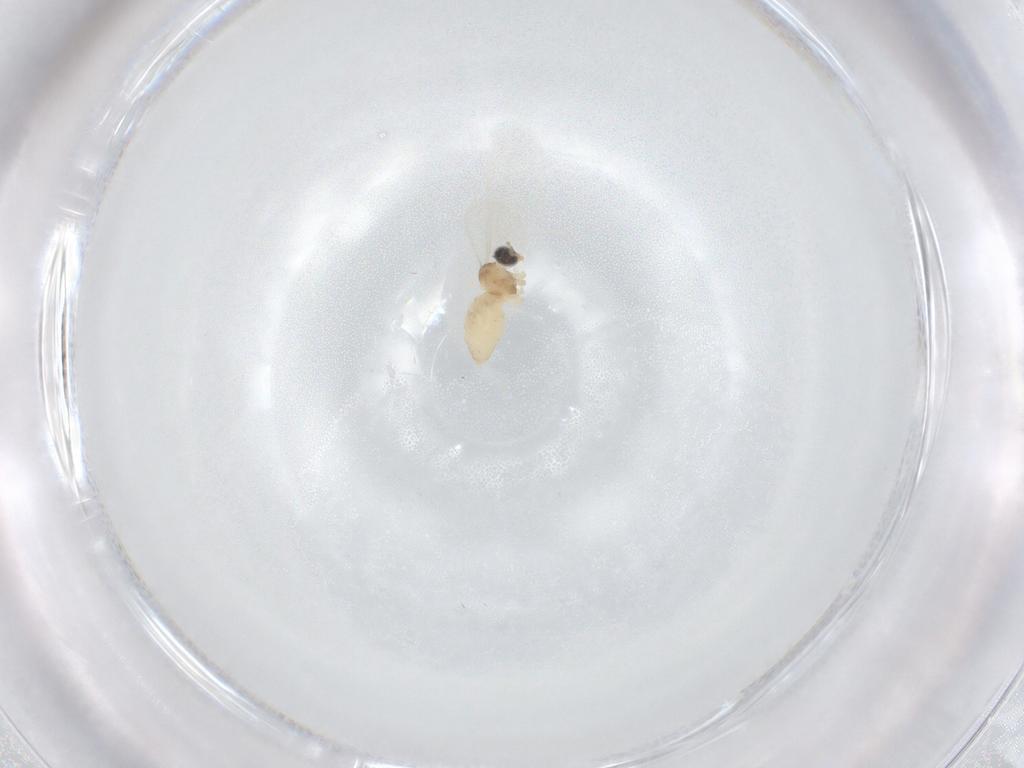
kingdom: Animalia
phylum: Arthropoda
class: Insecta
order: Diptera
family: Cecidomyiidae
